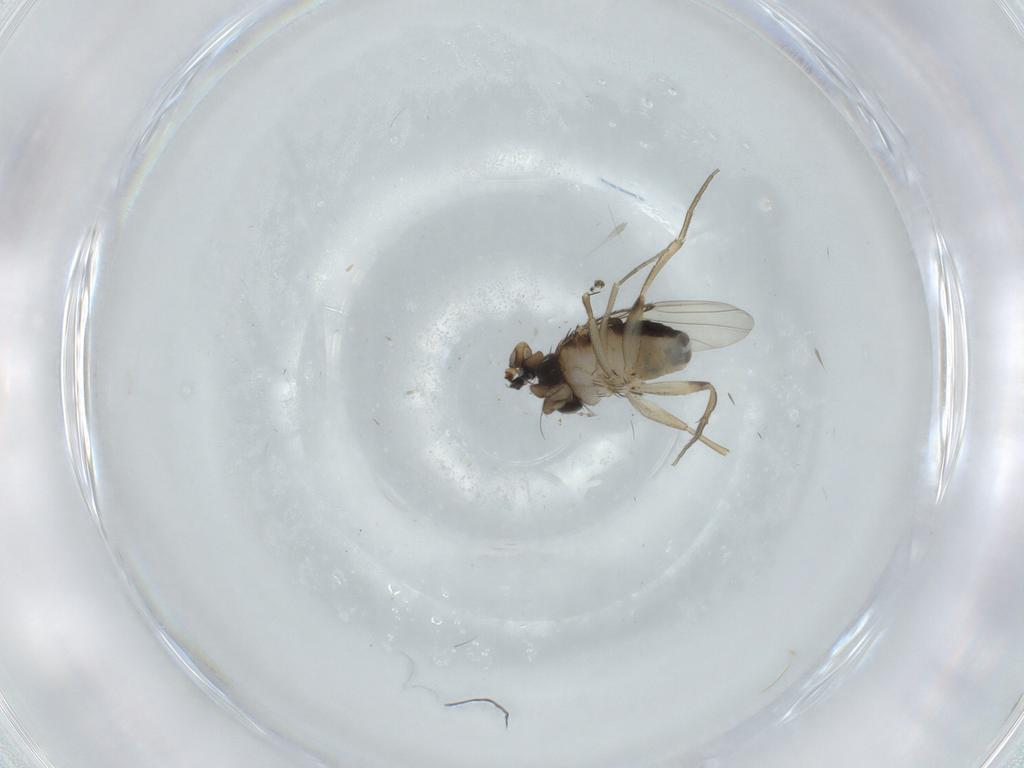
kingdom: Animalia
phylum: Arthropoda
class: Insecta
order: Diptera
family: Phoridae
